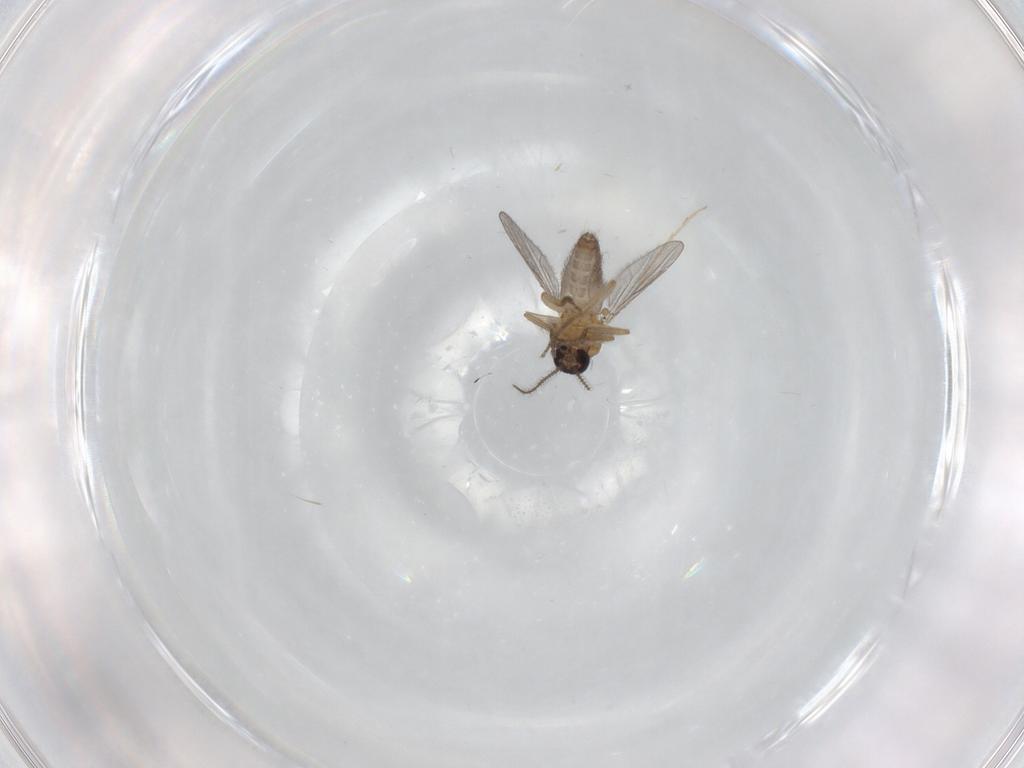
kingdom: Animalia
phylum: Arthropoda
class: Insecta
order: Diptera
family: Ceratopogonidae
